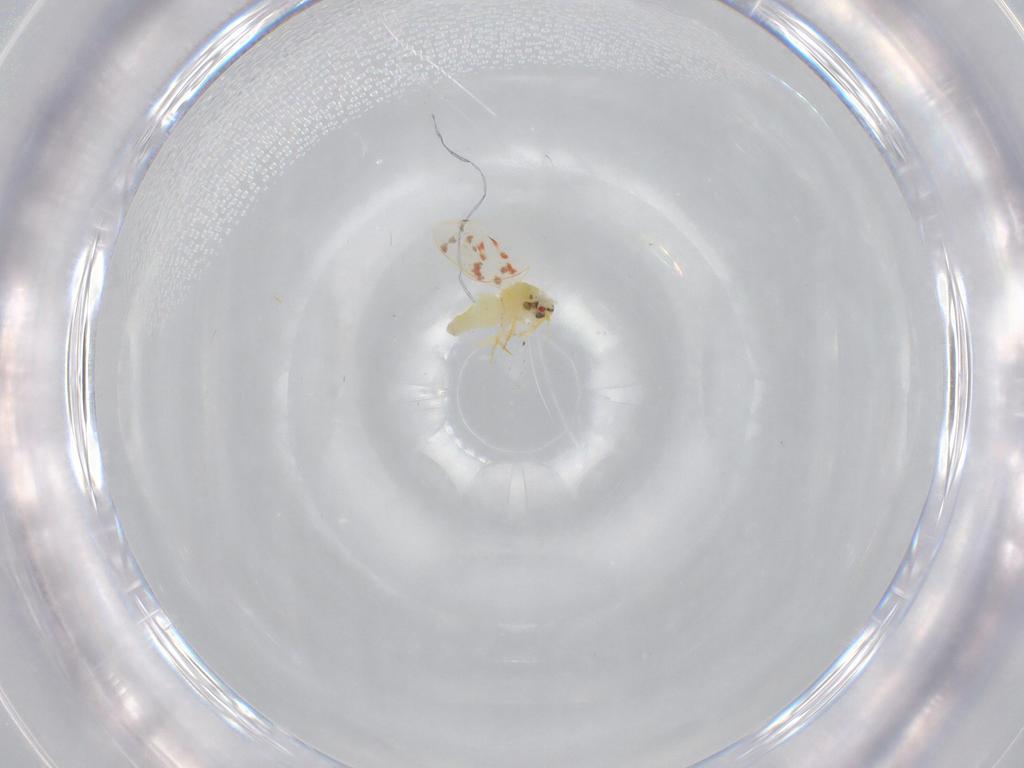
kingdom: Animalia
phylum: Arthropoda
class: Insecta
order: Hemiptera
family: Aleyrodidae
